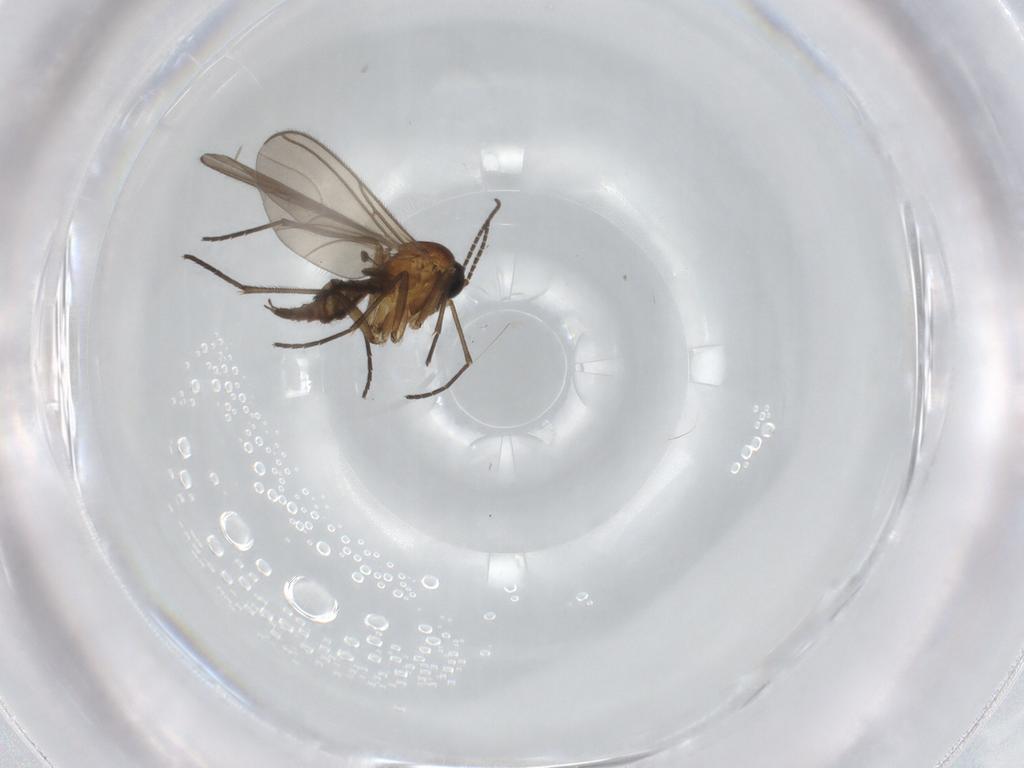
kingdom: Animalia
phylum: Arthropoda
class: Insecta
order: Diptera
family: Sciaridae
